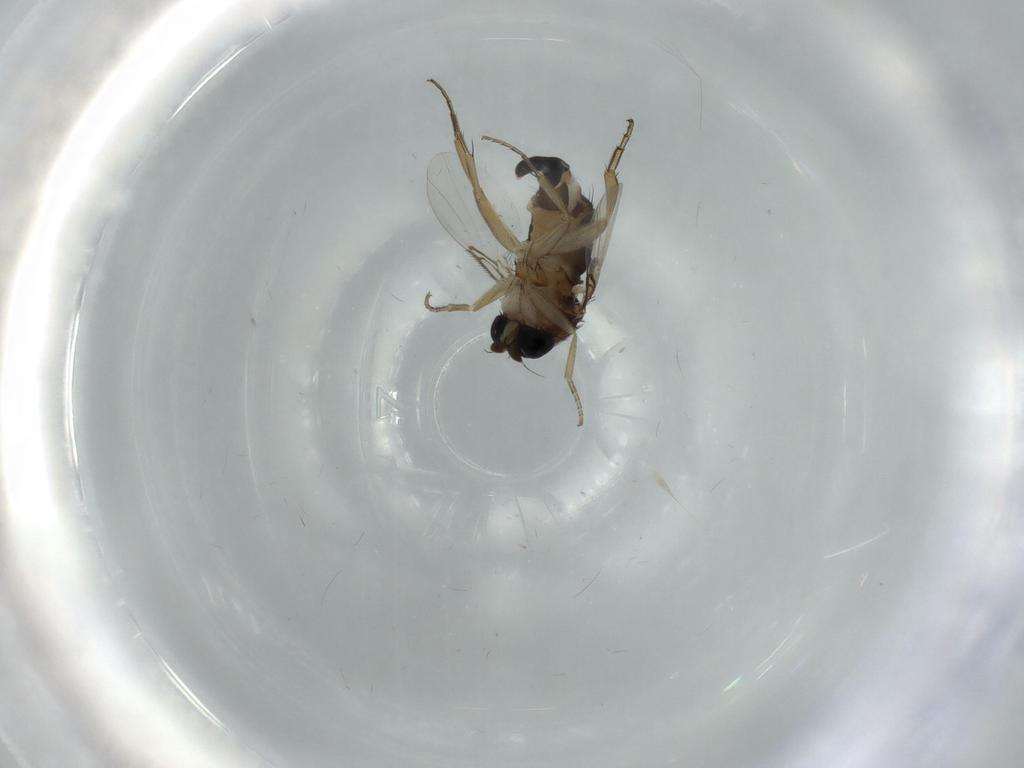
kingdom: Animalia
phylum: Arthropoda
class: Insecta
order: Diptera
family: Phoridae
